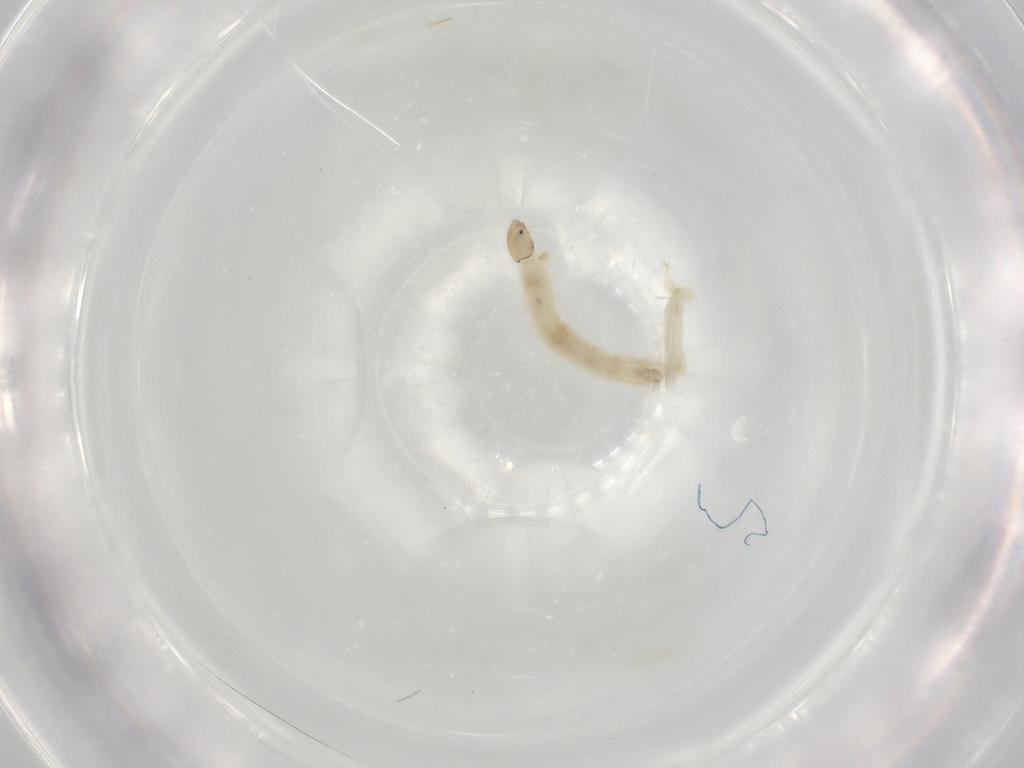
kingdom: Animalia
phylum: Arthropoda
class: Insecta
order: Diptera
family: Chironomidae
